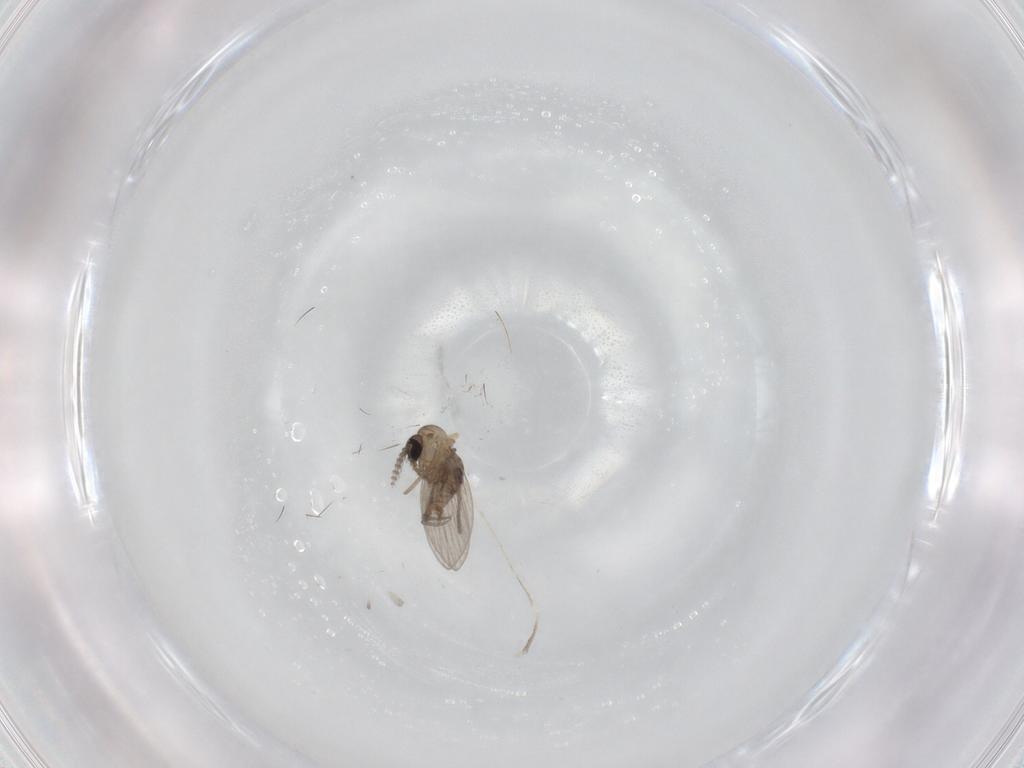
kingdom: Animalia
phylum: Arthropoda
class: Insecta
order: Diptera
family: Psychodidae
